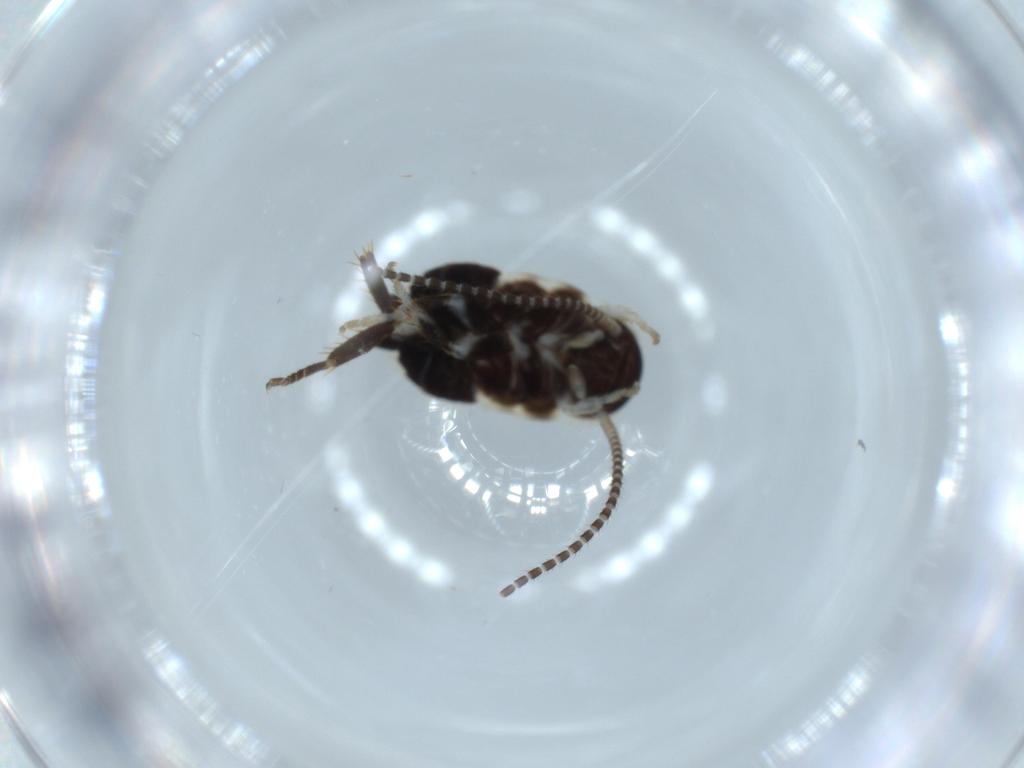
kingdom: Animalia
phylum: Arthropoda
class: Insecta
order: Blattodea
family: Ectobiidae
